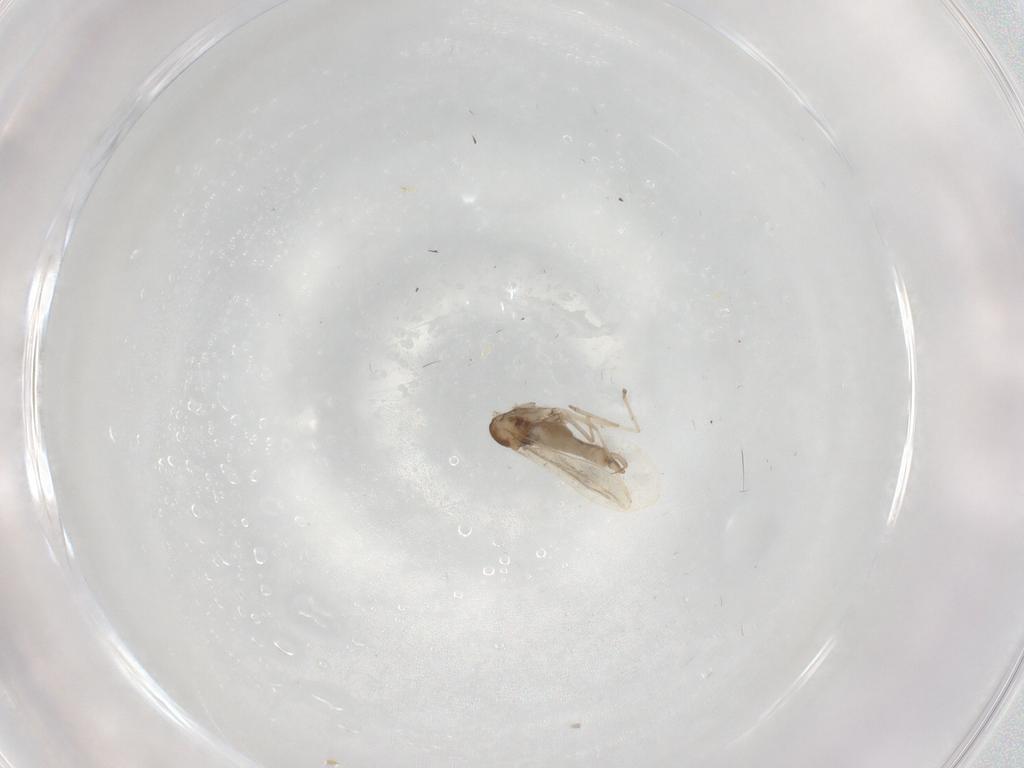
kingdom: Animalia
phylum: Arthropoda
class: Insecta
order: Diptera
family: Cecidomyiidae
